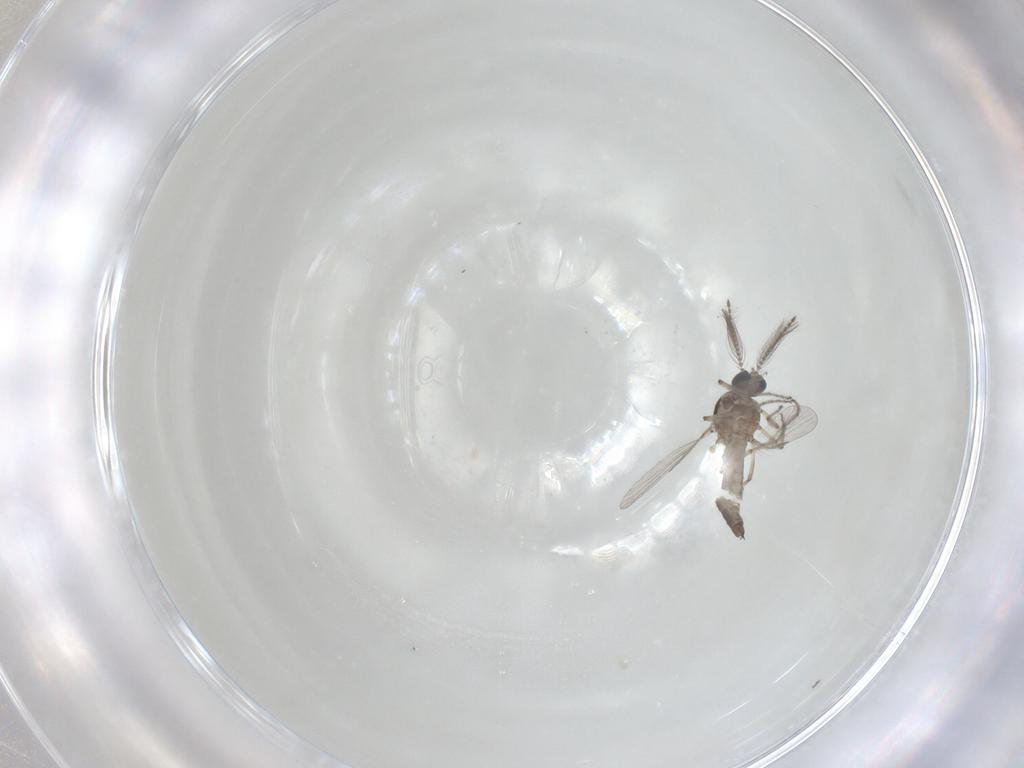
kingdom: Animalia
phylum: Arthropoda
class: Insecta
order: Diptera
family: Ceratopogonidae
